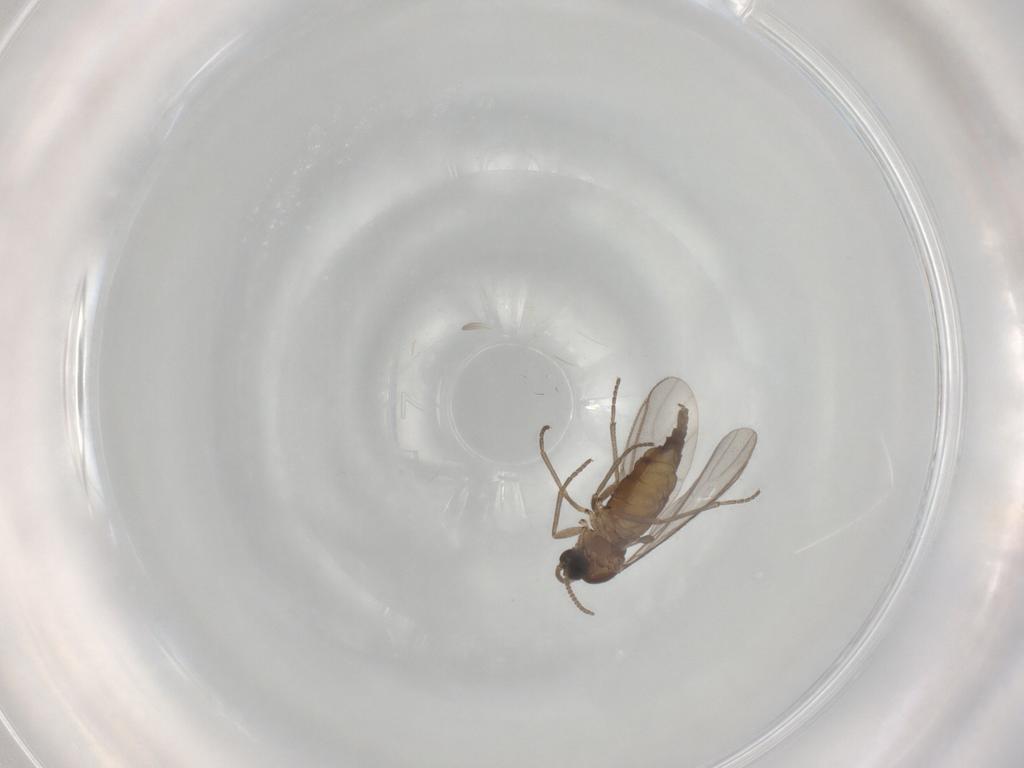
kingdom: Animalia
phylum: Arthropoda
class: Insecta
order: Diptera
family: Sciaridae
